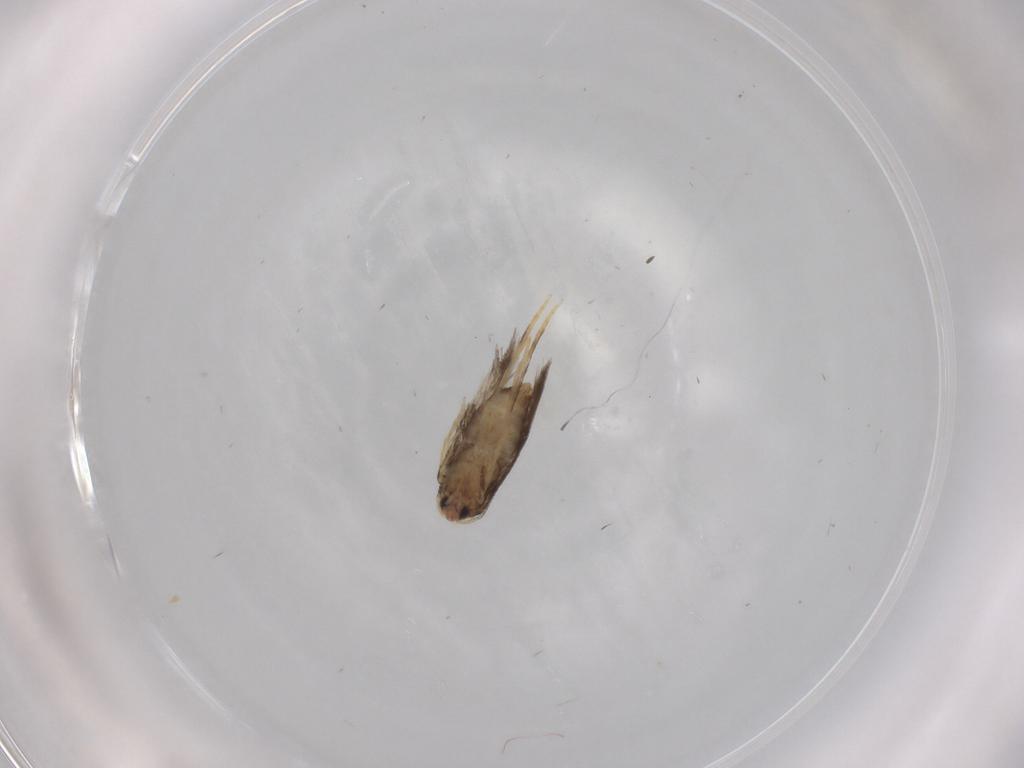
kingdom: Animalia
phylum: Arthropoda
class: Insecta
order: Lepidoptera
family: Nepticulidae
